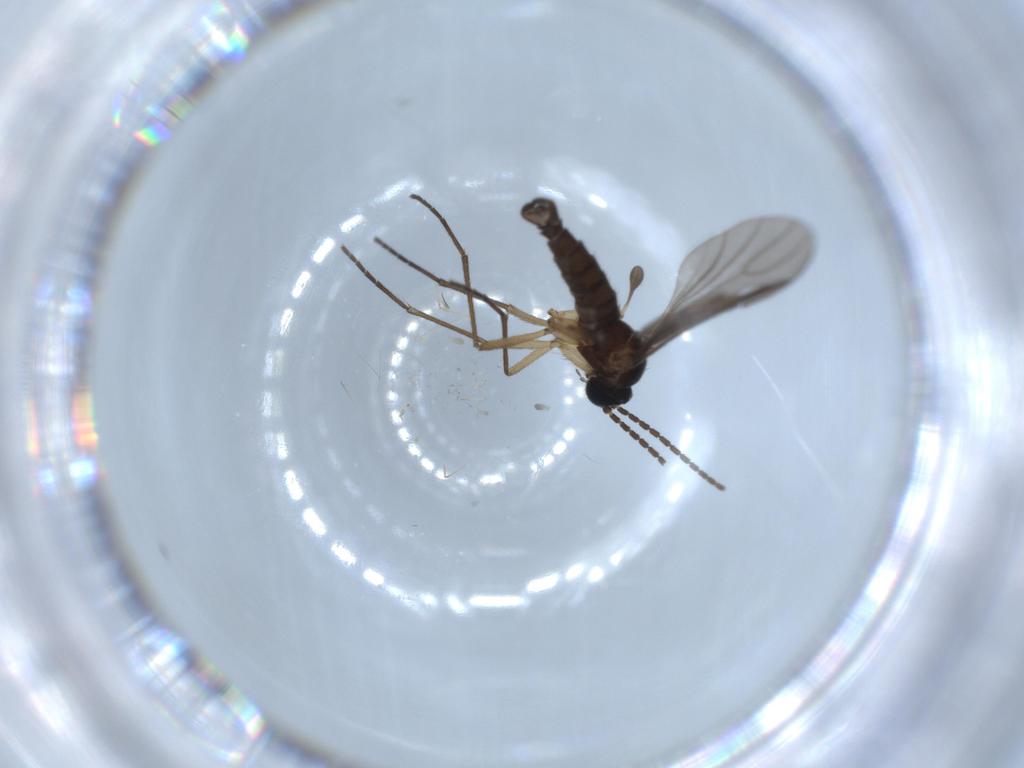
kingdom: Animalia
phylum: Arthropoda
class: Insecta
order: Diptera
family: Sciaridae
